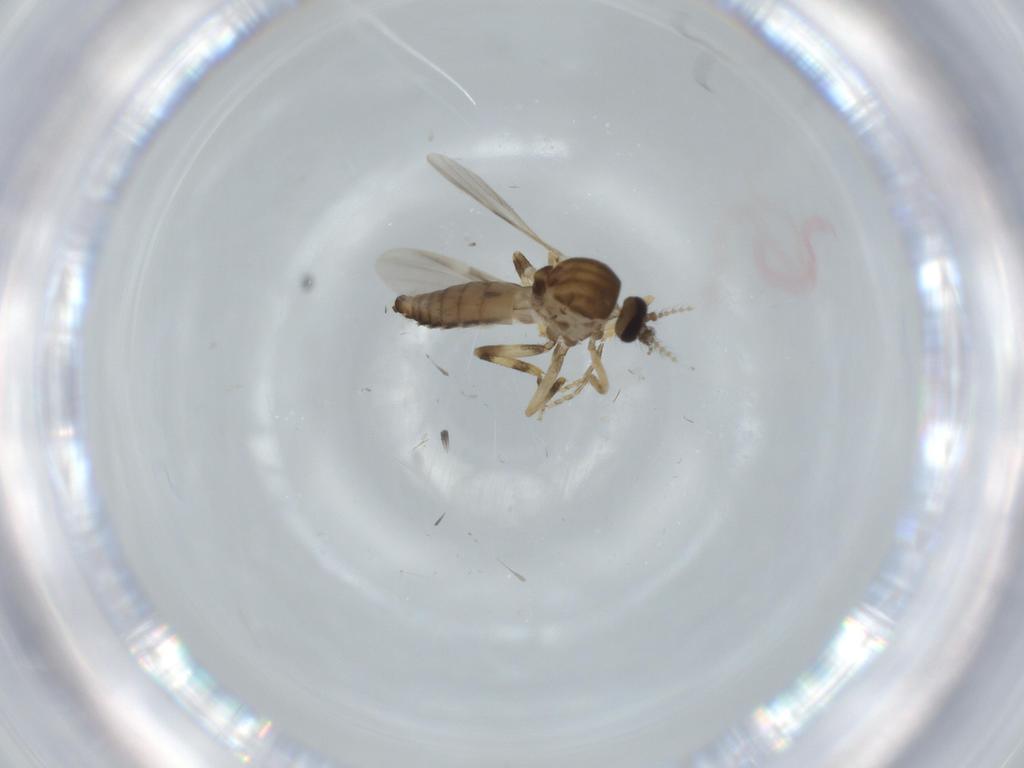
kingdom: Animalia
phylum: Arthropoda
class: Insecta
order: Diptera
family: Ceratopogonidae
